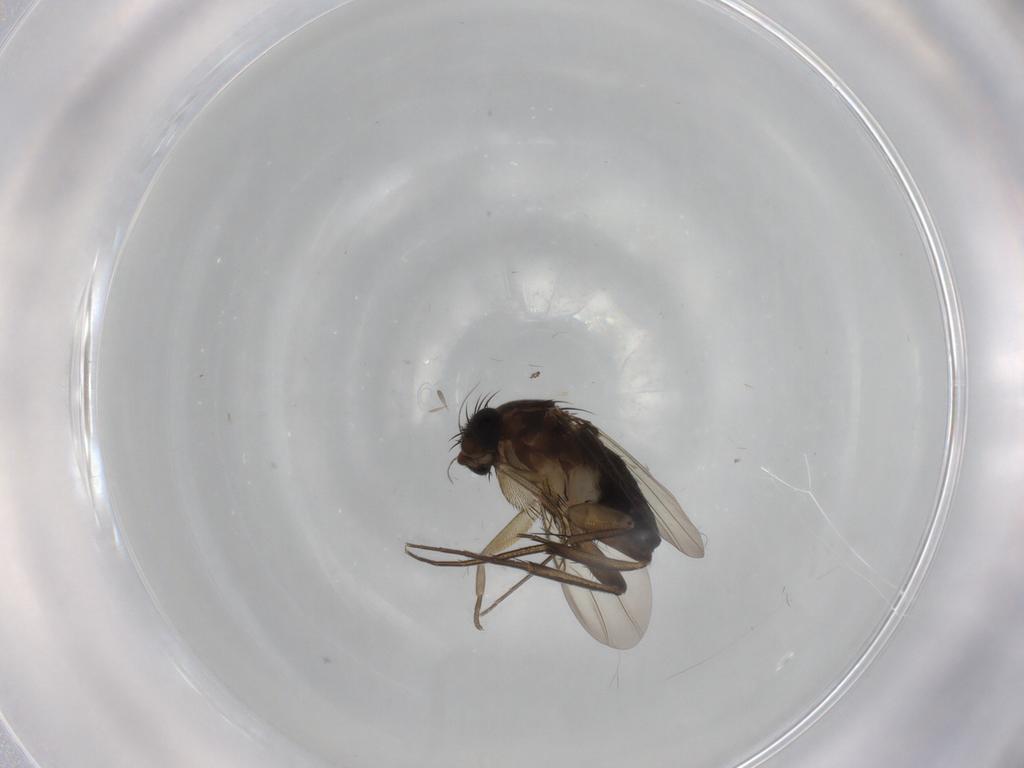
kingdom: Animalia
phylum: Arthropoda
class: Insecta
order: Diptera
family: Phoridae
